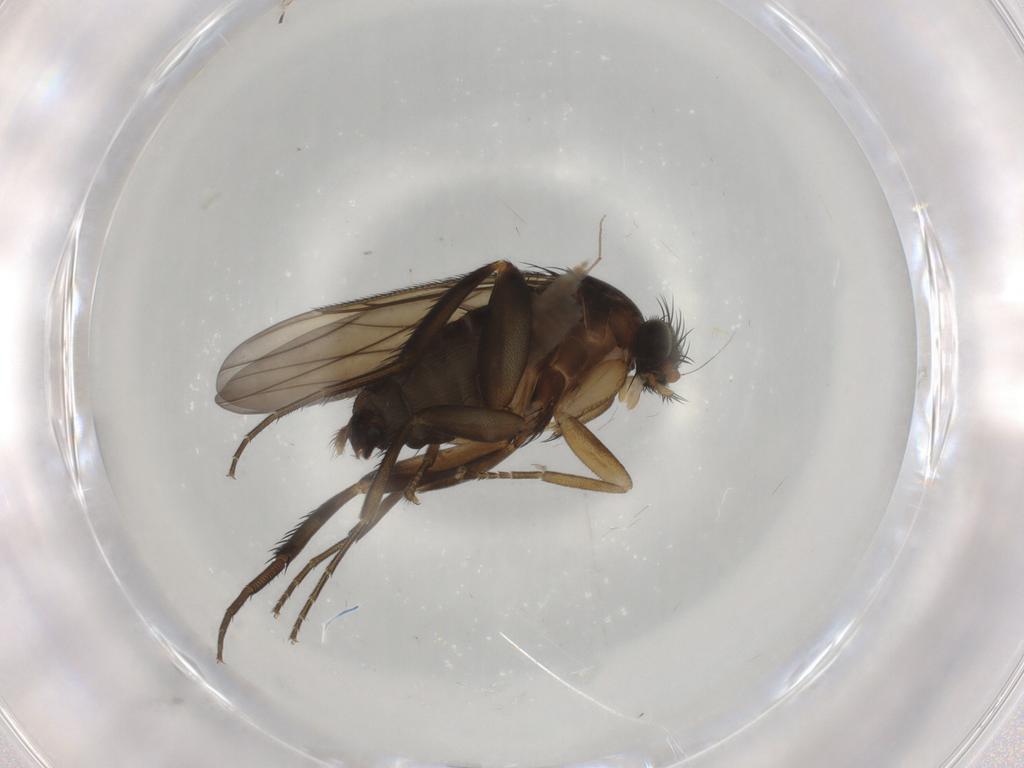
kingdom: Animalia
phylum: Arthropoda
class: Insecta
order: Diptera
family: Phoridae
